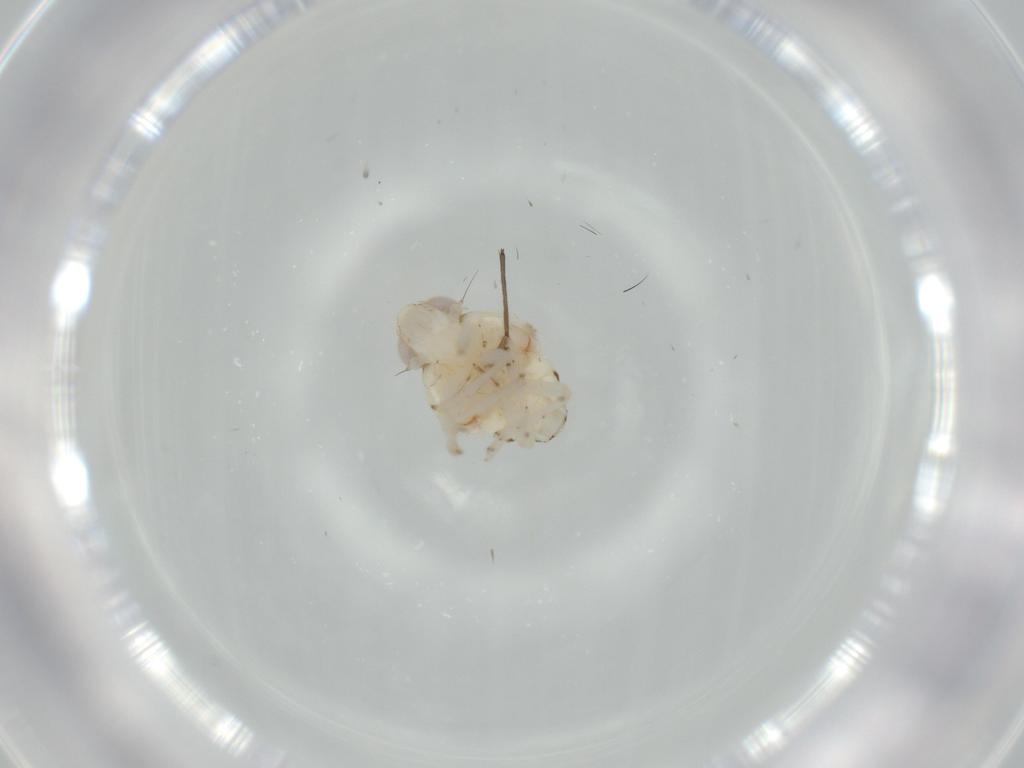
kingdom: Animalia
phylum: Arthropoda
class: Insecta
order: Hemiptera
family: Nogodinidae
